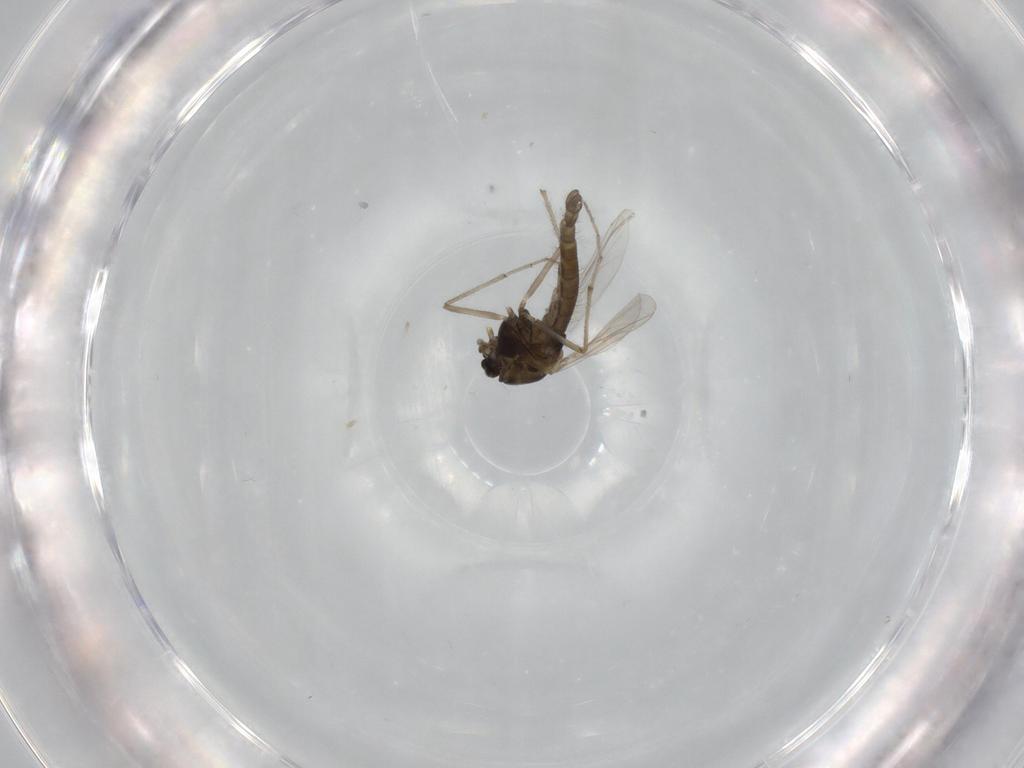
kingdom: Animalia
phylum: Arthropoda
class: Insecta
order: Diptera
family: Chironomidae
